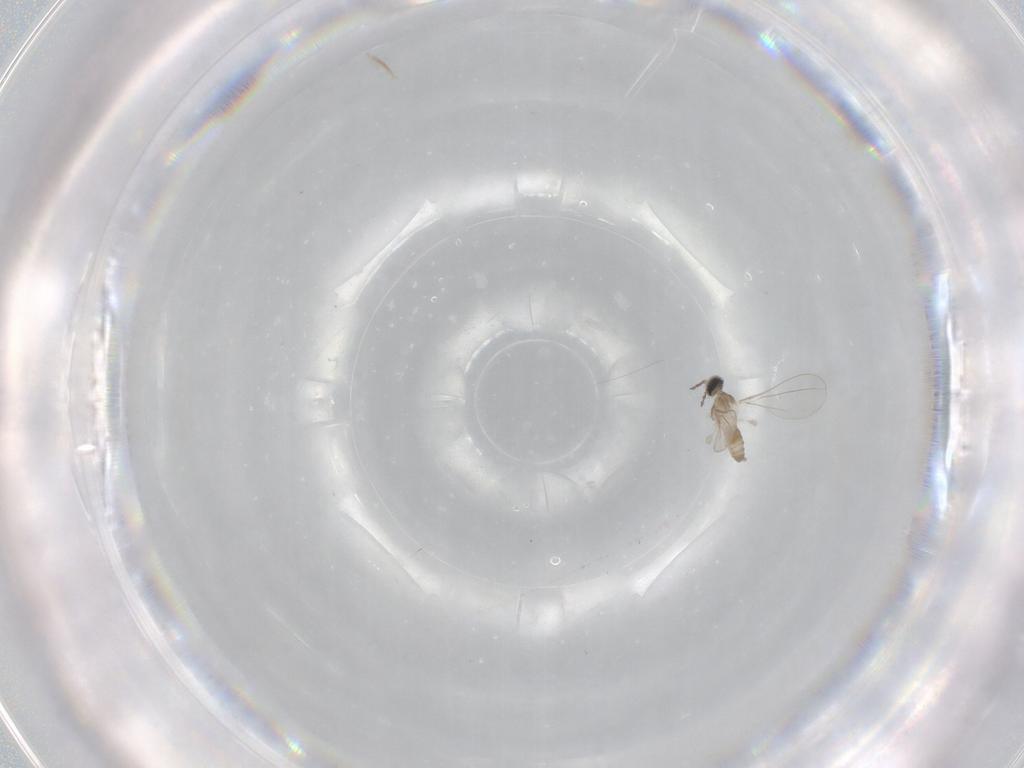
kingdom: Animalia
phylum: Arthropoda
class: Insecta
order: Diptera
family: Cecidomyiidae
